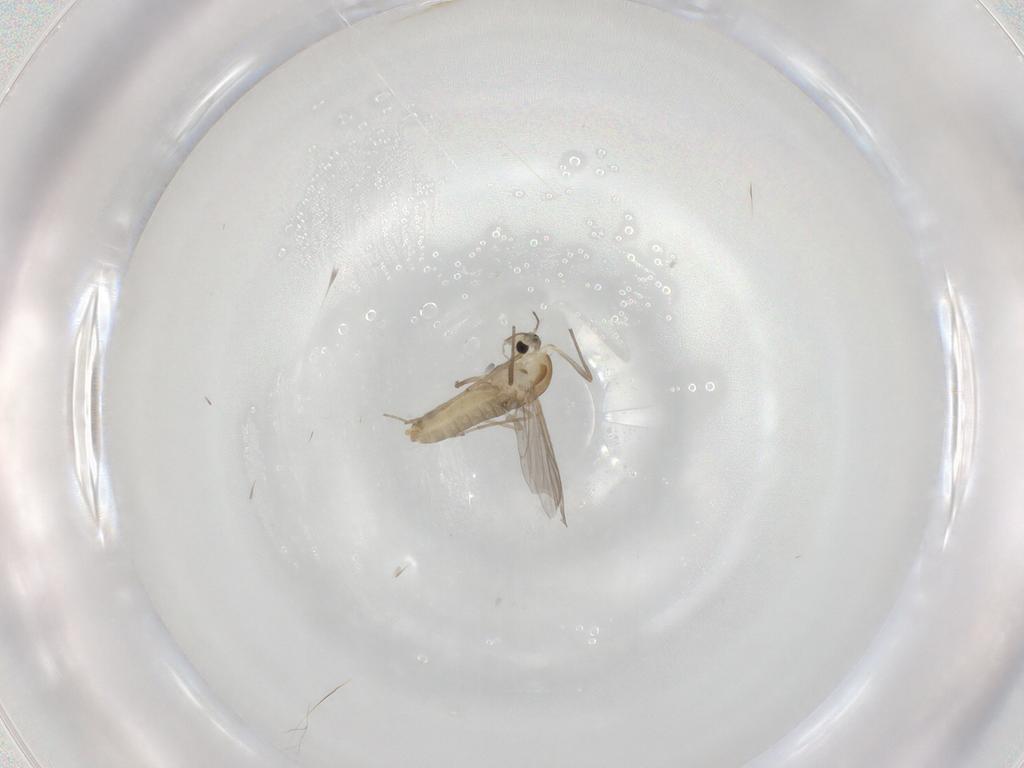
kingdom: Animalia
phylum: Arthropoda
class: Insecta
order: Diptera
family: Chironomidae
